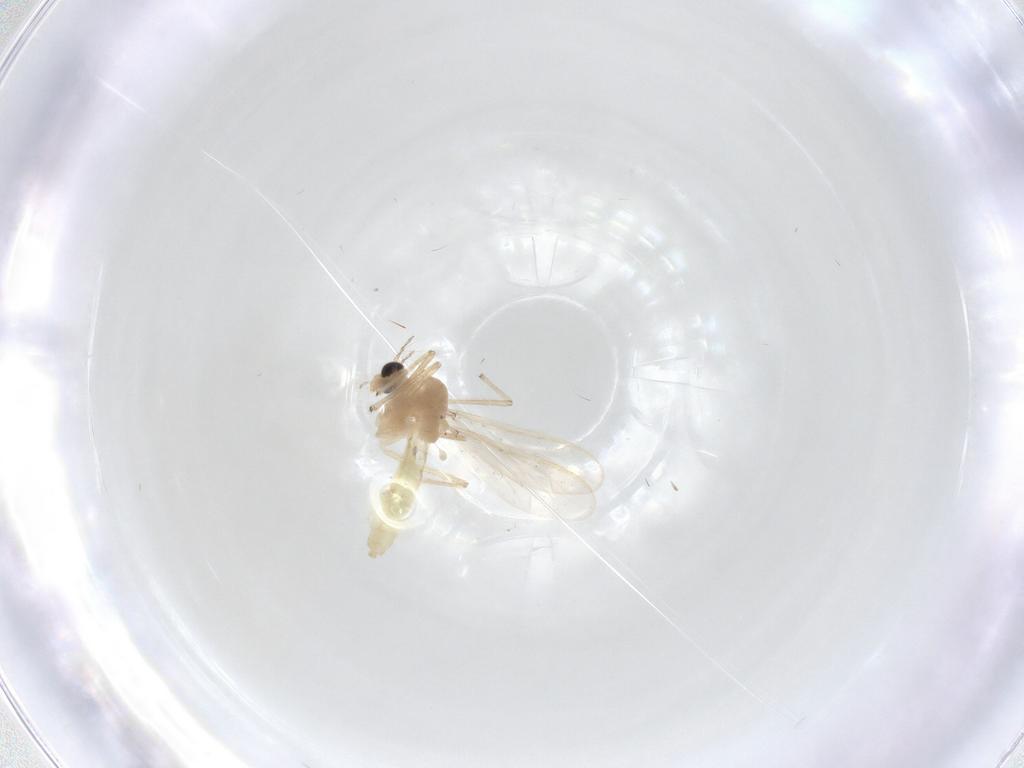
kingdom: Animalia
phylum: Arthropoda
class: Insecta
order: Diptera
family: Chironomidae
